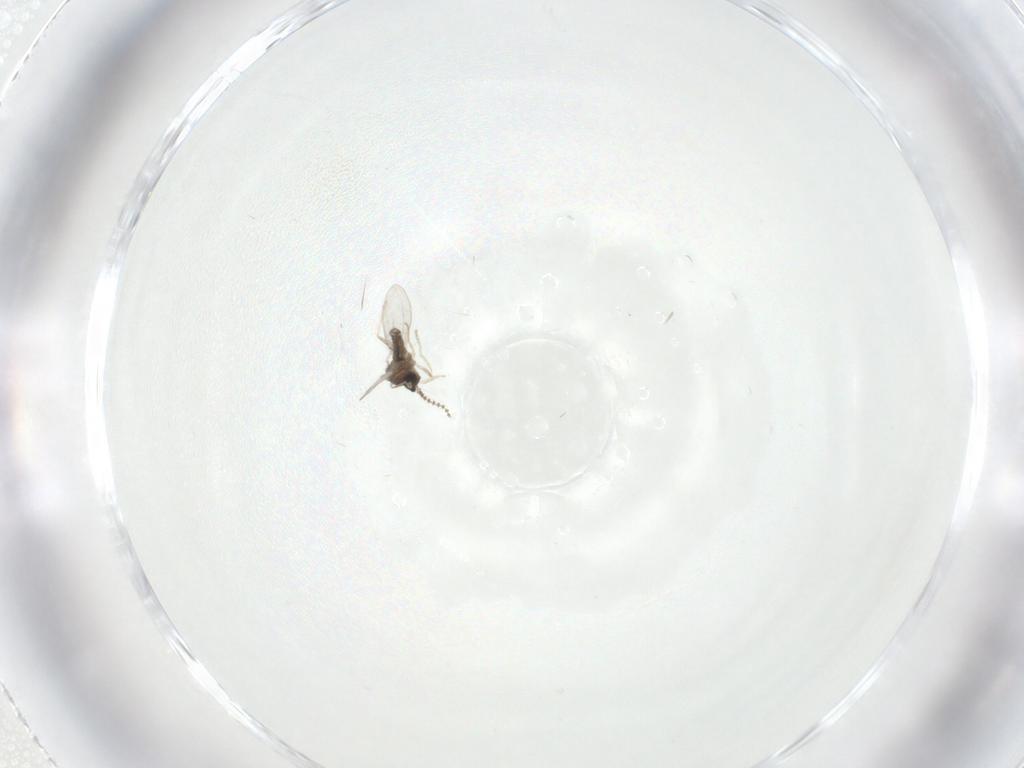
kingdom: Animalia
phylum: Arthropoda
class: Insecta
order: Diptera
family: Cecidomyiidae
